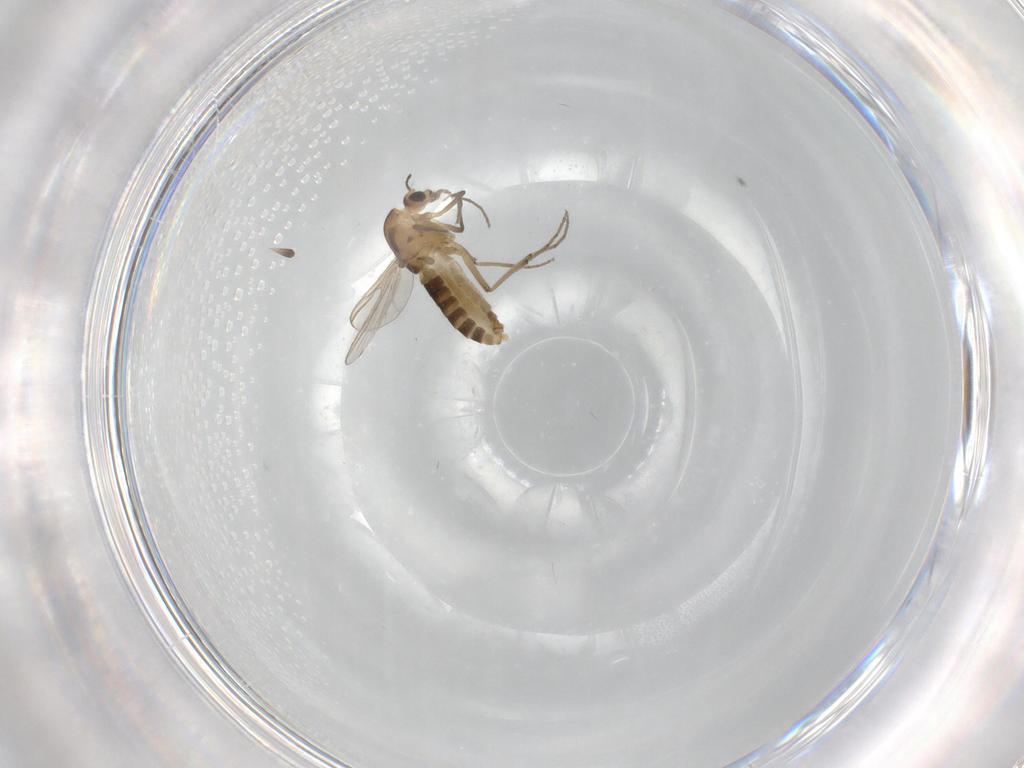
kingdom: Animalia
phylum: Arthropoda
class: Insecta
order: Diptera
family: Chironomidae
